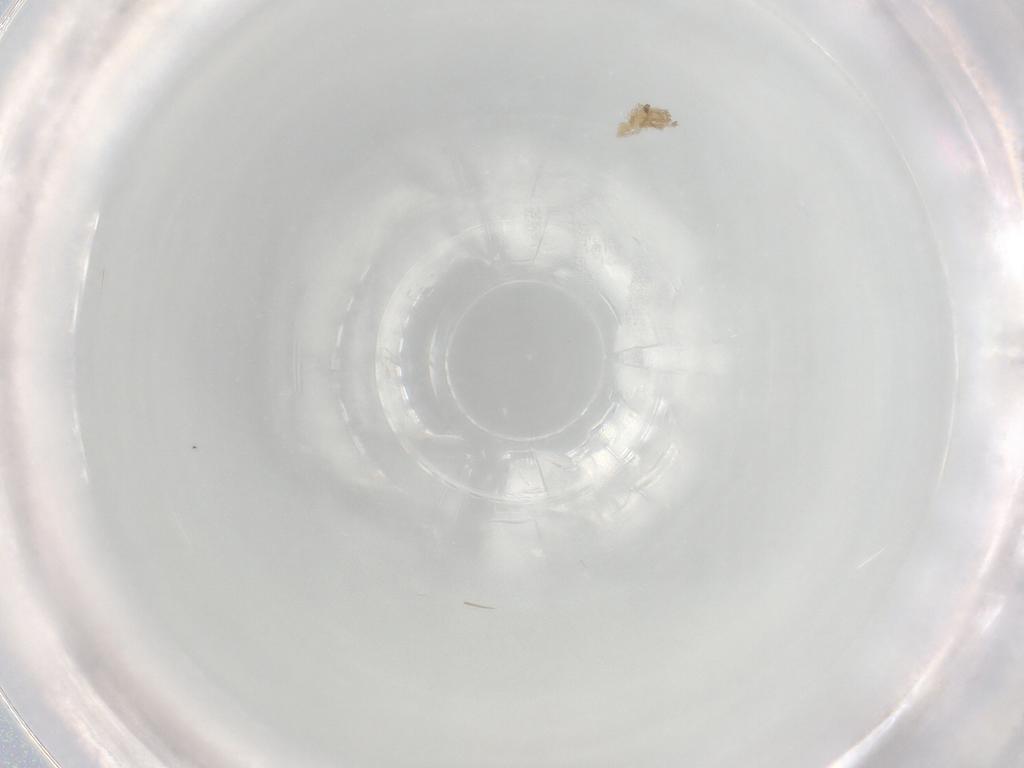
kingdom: Animalia
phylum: Arthropoda
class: Arachnida
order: Trombidiformes
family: Erythraeidae
